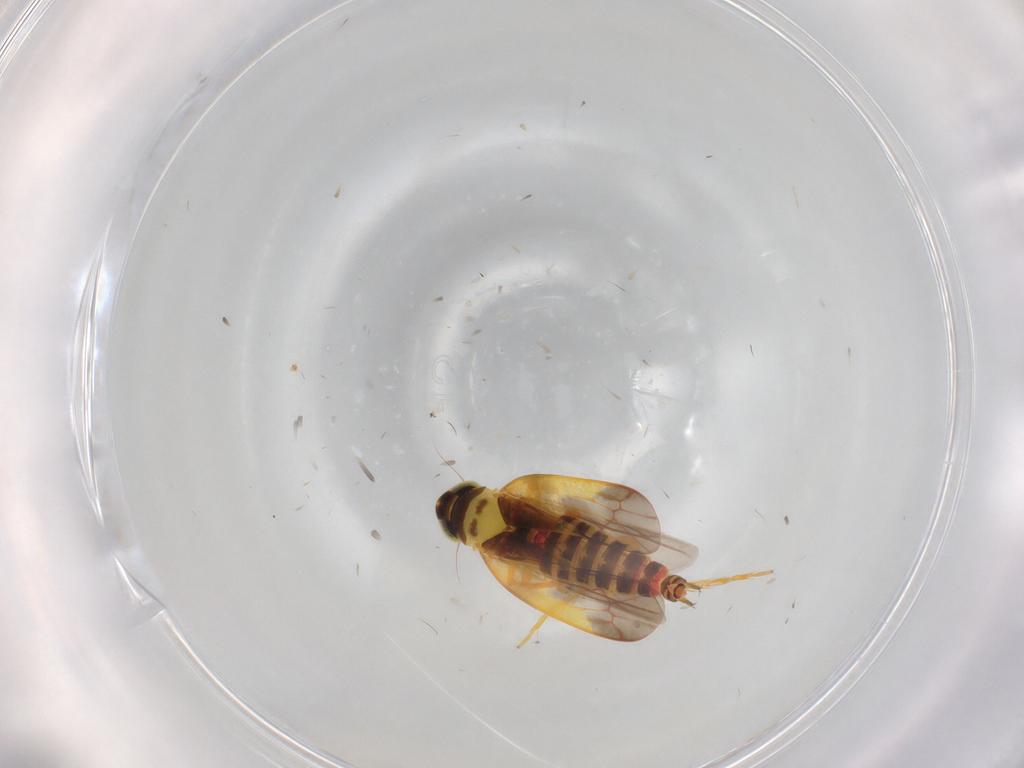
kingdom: Animalia
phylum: Arthropoda
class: Insecta
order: Hemiptera
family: Cicadellidae
